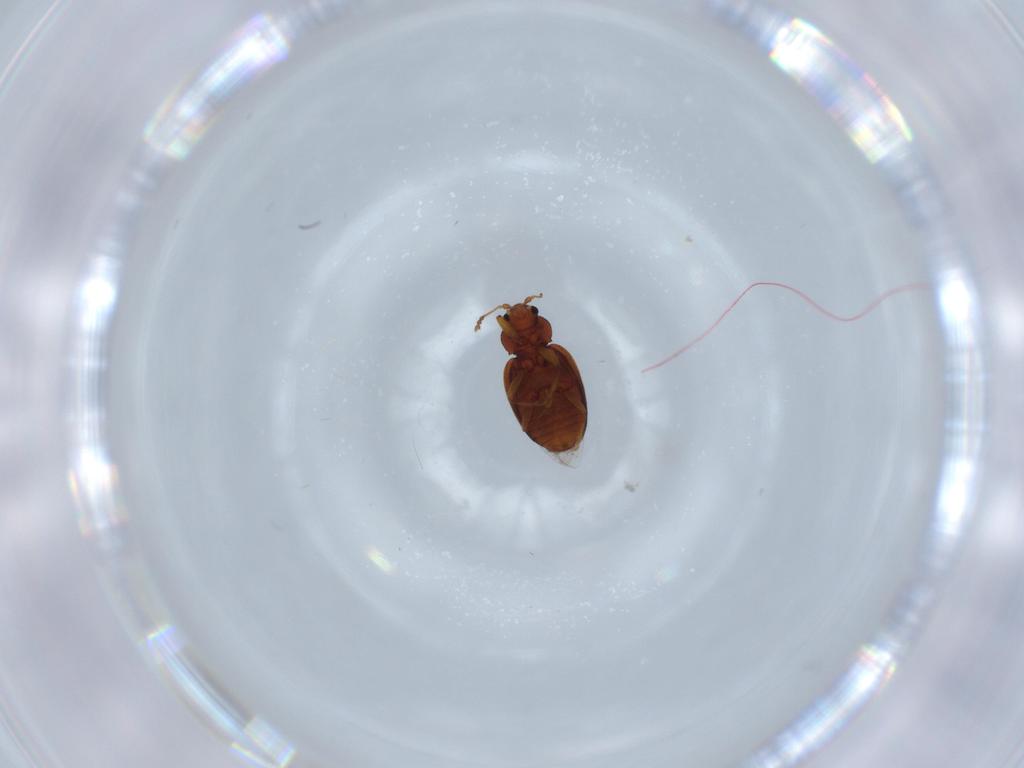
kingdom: Animalia
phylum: Arthropoda
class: Insecta
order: Coleoptera
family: Latridiidae
